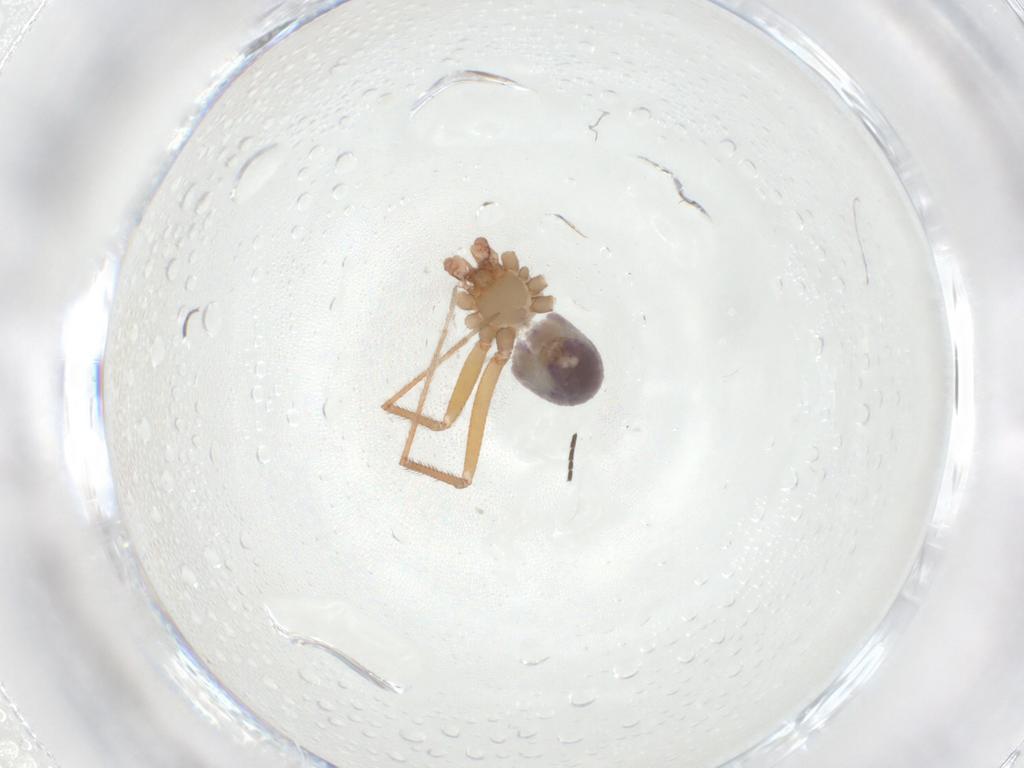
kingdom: Animalia
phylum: Arthropoda
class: Arachnida
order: Araneae
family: Pholcidae
